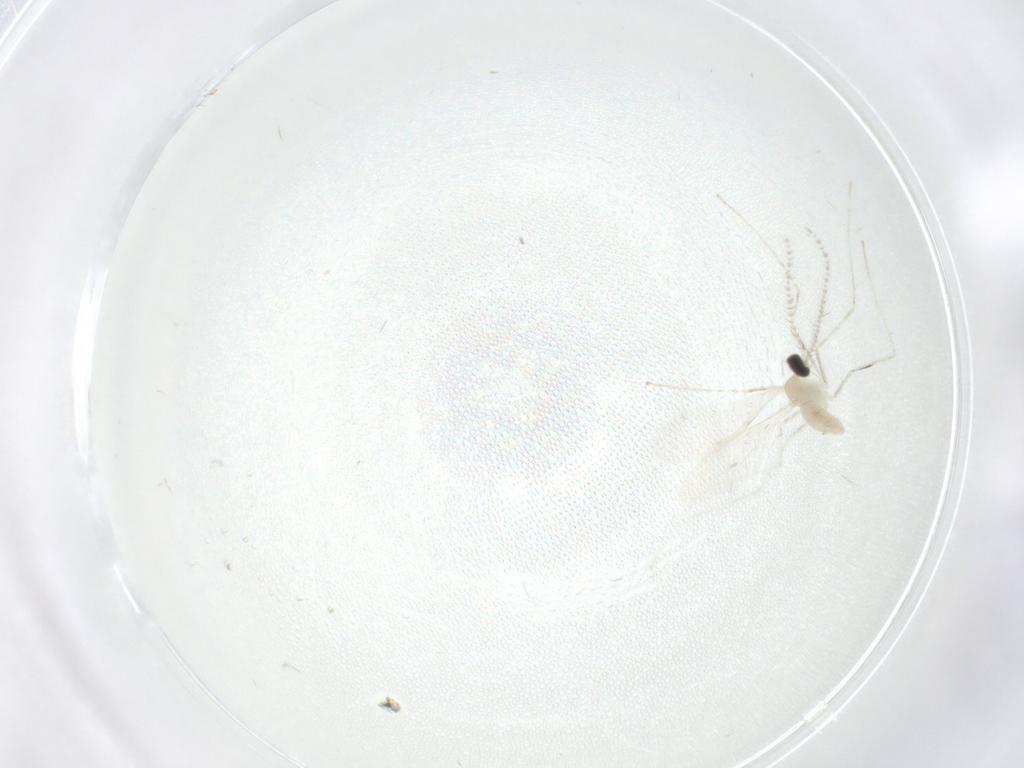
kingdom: Animalia
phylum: Arthropoda
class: Insecta
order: Diptera
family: Cecidomyiidae
